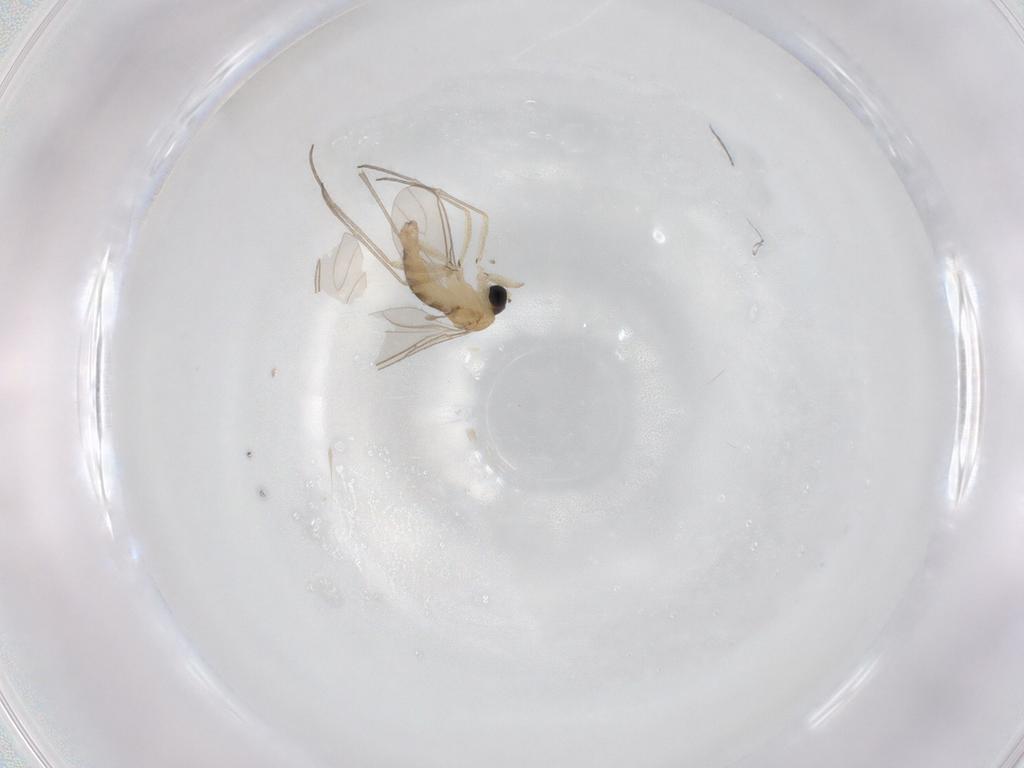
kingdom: Animalia
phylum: Arthropoda
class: Insecta
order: Diptera
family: Sciaridae
